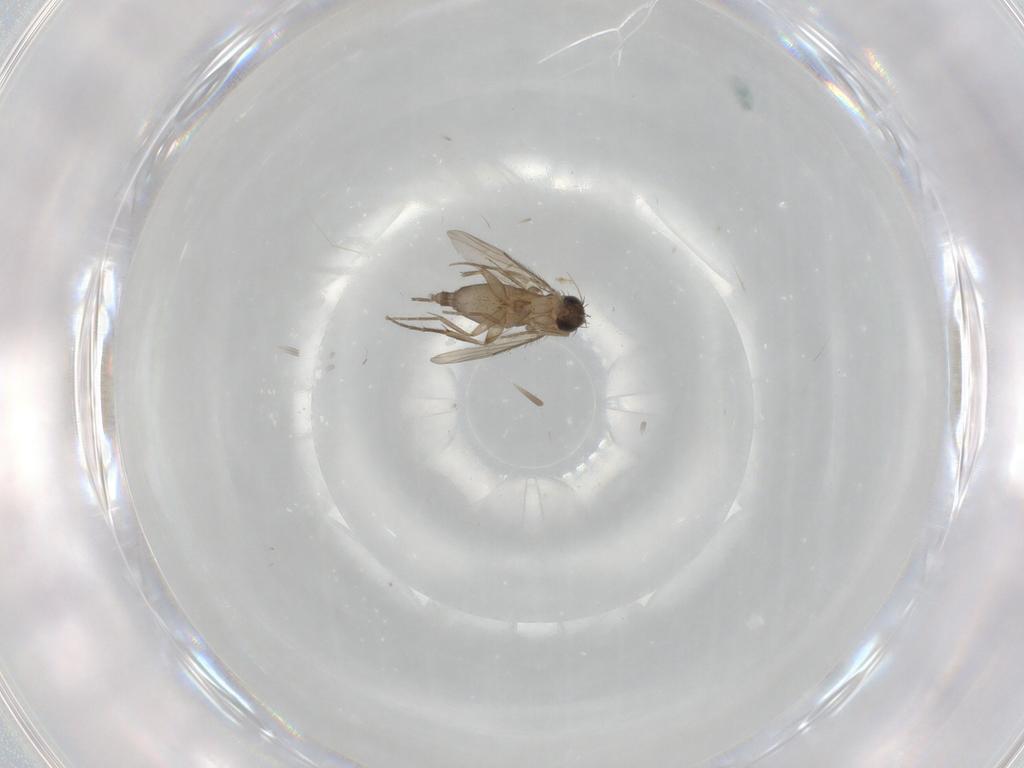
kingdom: Animalia
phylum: Arthropoda
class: Insecta
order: Diptera
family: Phoridae
